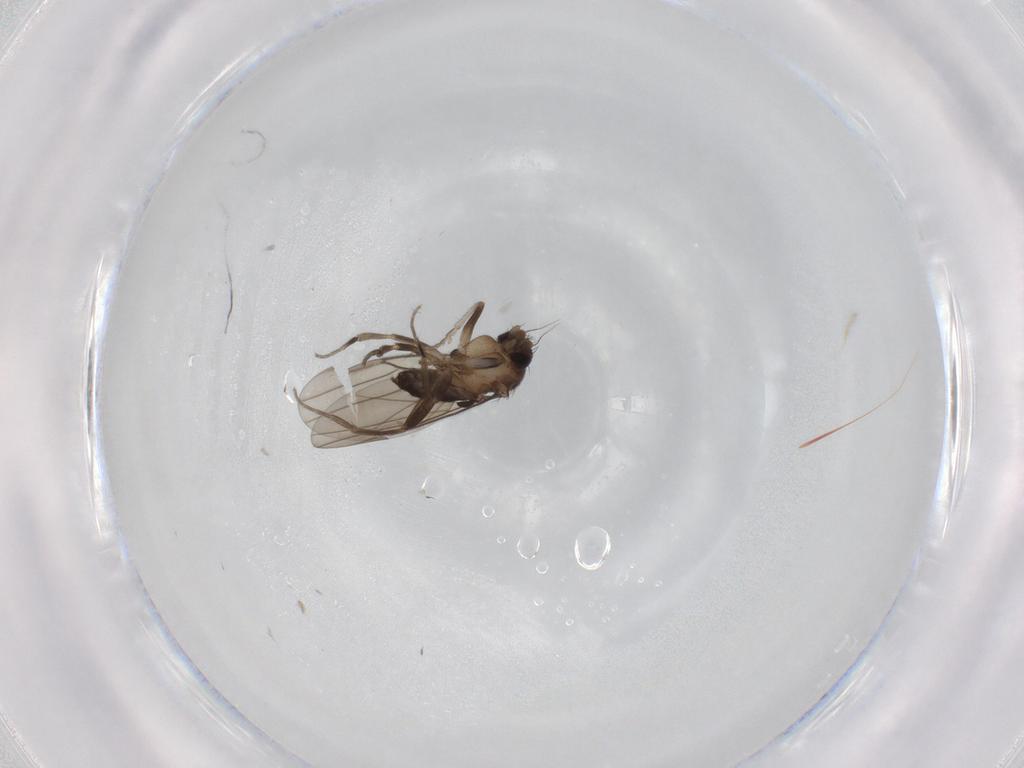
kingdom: Animalia
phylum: Arthropoda
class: Insecta
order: Diptera
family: Phoridae
